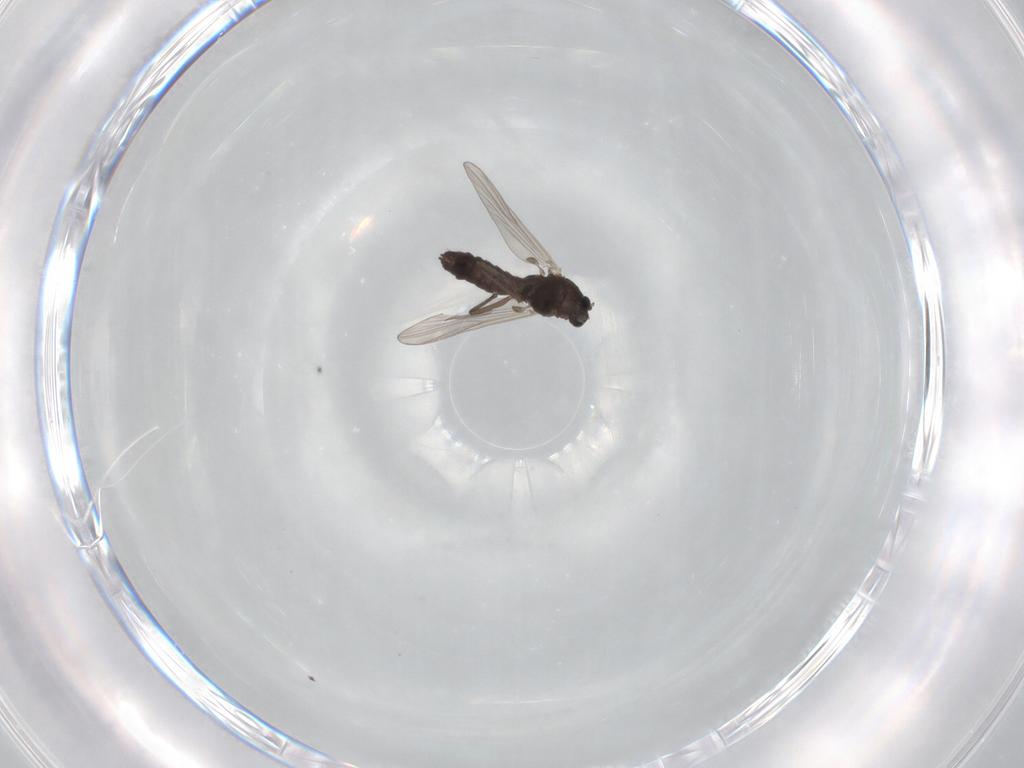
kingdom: Animalia
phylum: Arthropoda
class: Insecta
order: Diptera
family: Chironomidae
